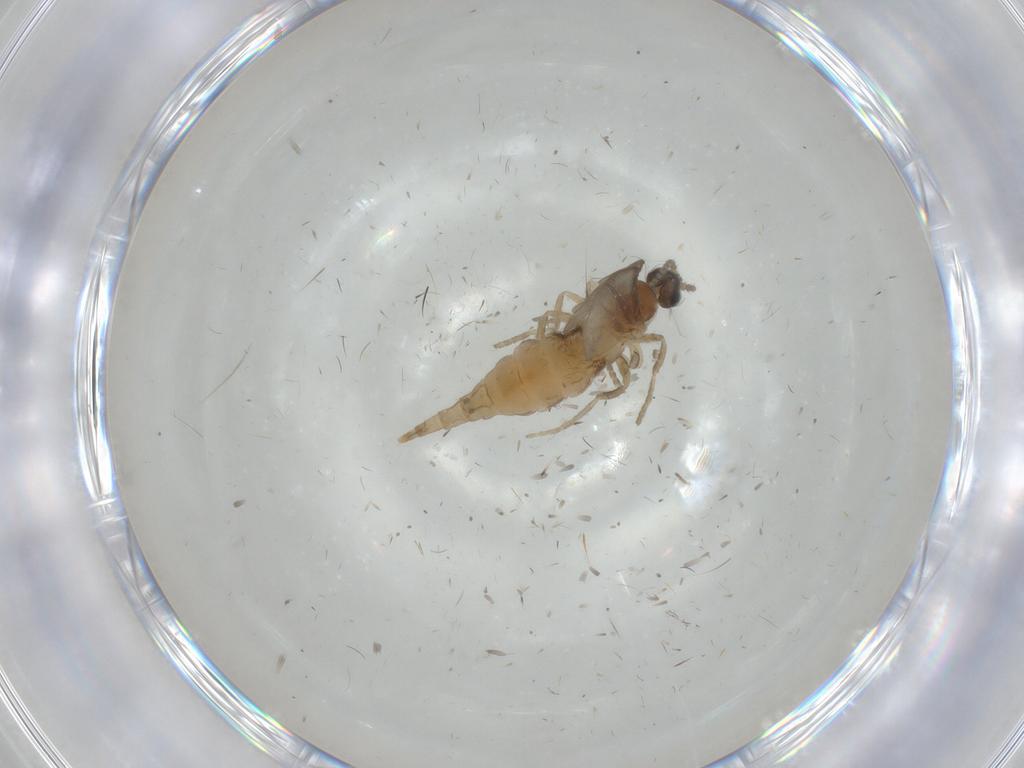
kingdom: Animalia
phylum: Arthropoda
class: Insecta
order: Diptera
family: Cecidomyiidae
